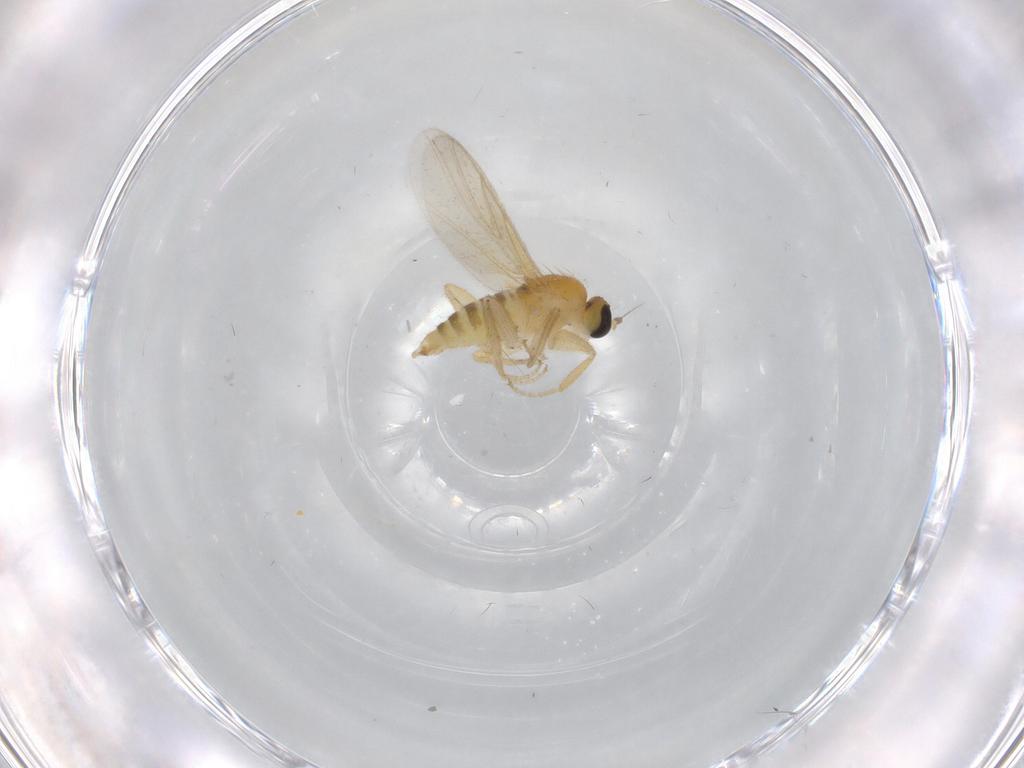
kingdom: Animalia
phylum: Arthropoda
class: Insecta
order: Diptera
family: Hybotidae
